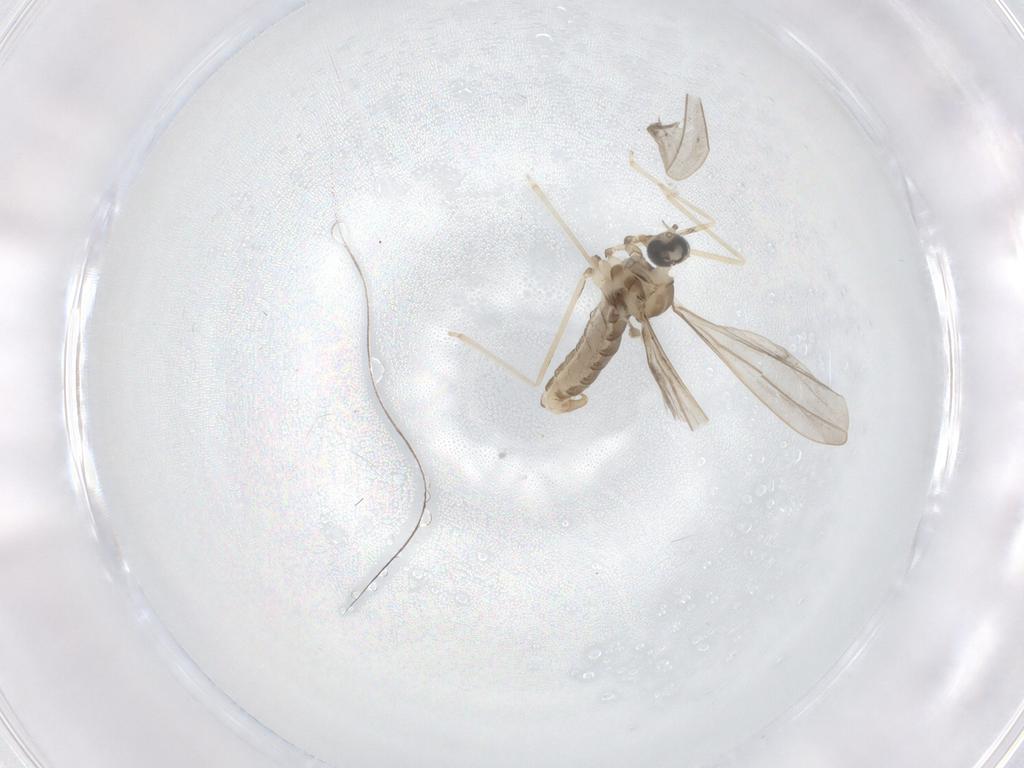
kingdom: Animalia
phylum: Arthropoda
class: Insecta
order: Diptera
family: Cecidomyiidae
